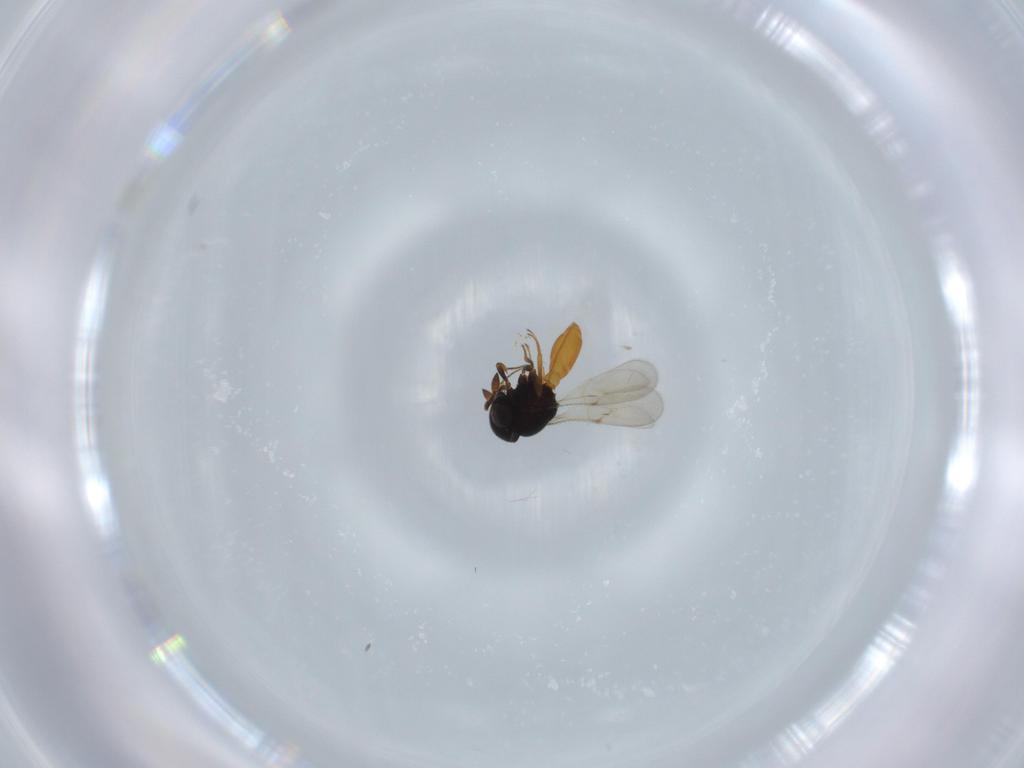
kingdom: Animalia
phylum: Arthropoda
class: Insecta
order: Hymenoptera
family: Scelionidae
